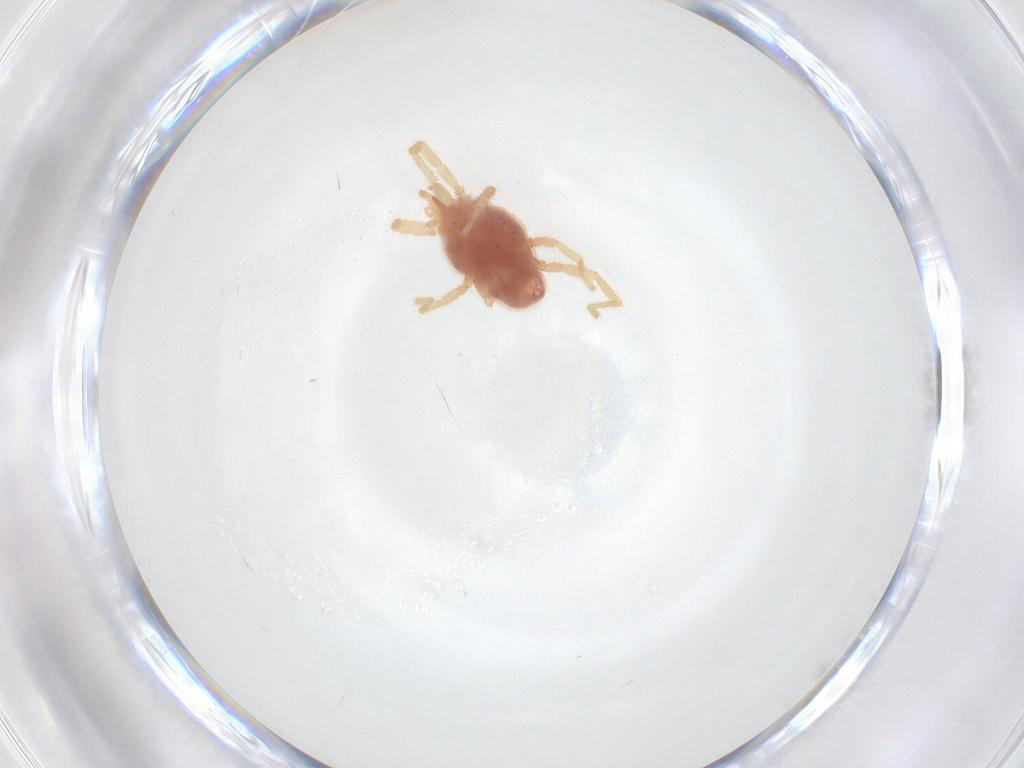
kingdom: Animalia
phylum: Arthropoda
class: Arachnida
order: Trombidiformes
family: Erythraeidae
